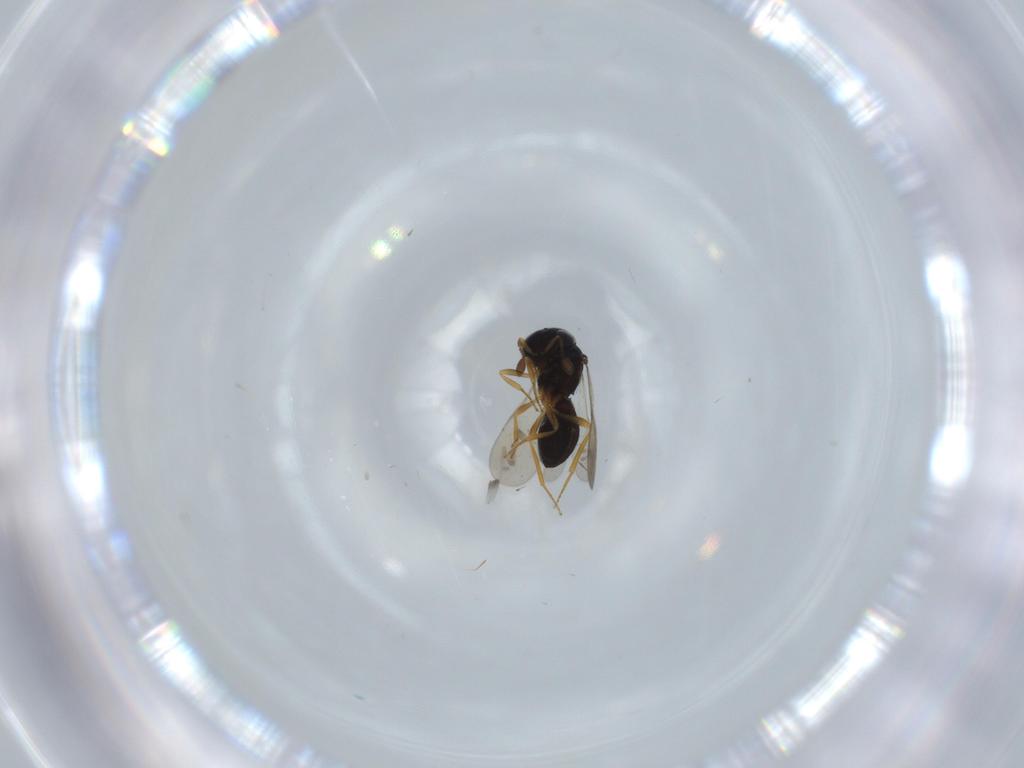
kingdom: Animalia
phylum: Arthropoda
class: Insecta
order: Hymenoptera
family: Scelionidae
